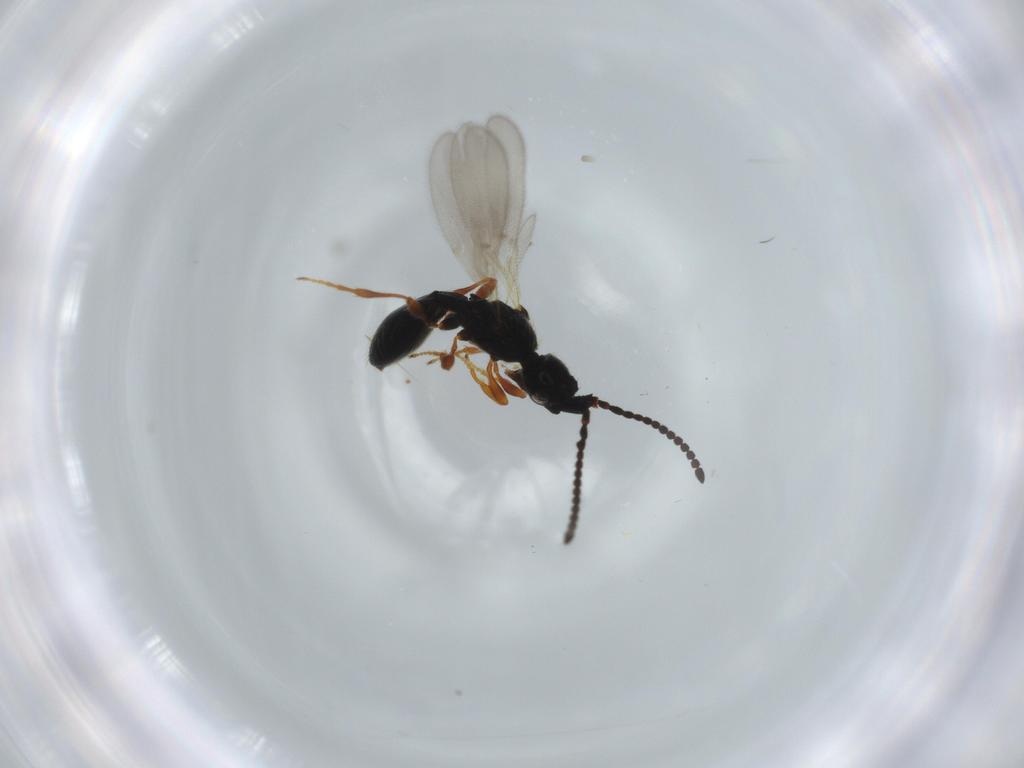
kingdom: Animalia
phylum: Arthropoda
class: Insecta
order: Hymenoptera
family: Diapriidae
